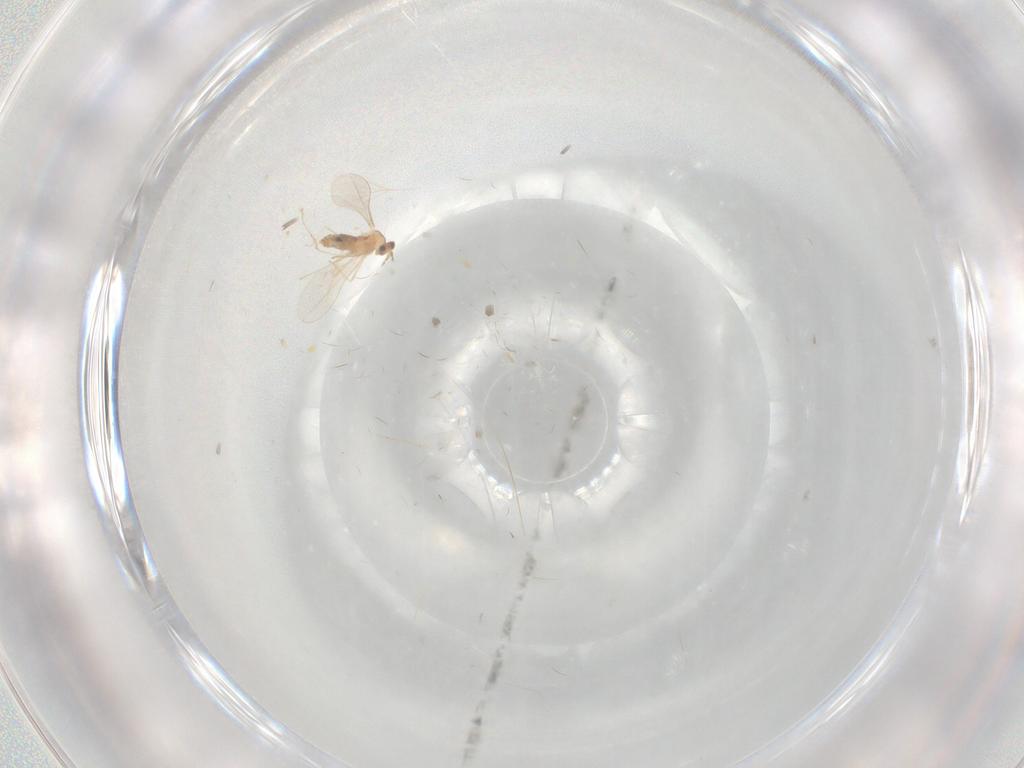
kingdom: Animalia
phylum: Arthropoda
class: Insecta
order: Diptera
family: Cecidomyiidae
